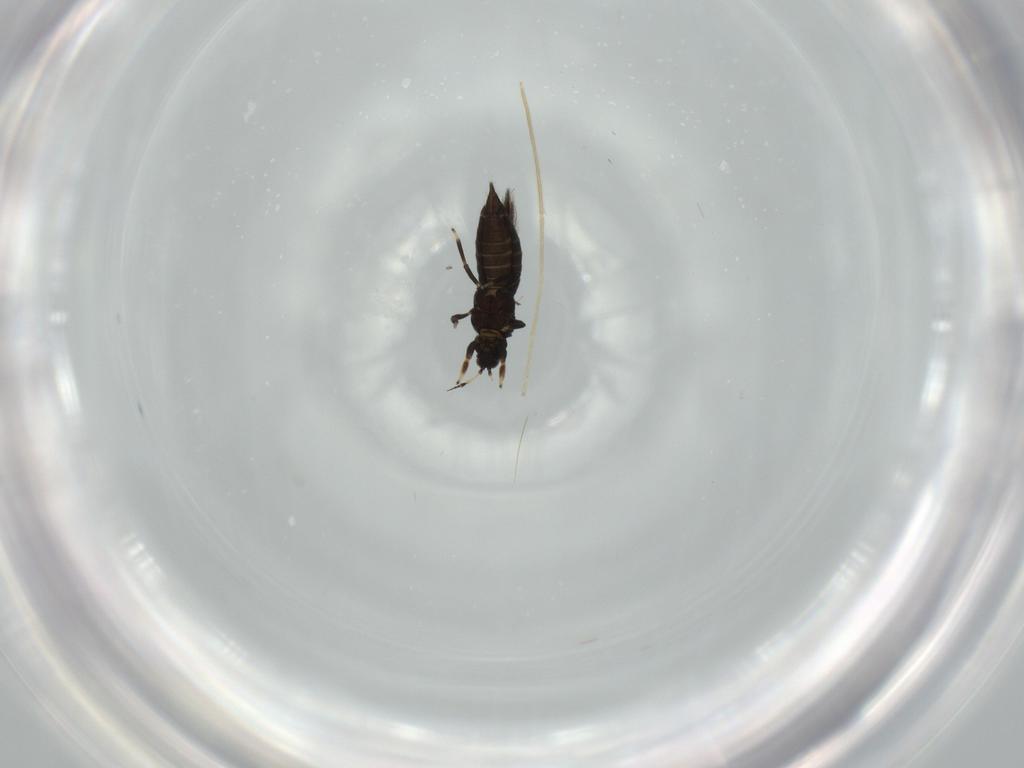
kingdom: Animalia
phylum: Arthropoda
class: Insecta
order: Thysanoptera
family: Heterothripidae
